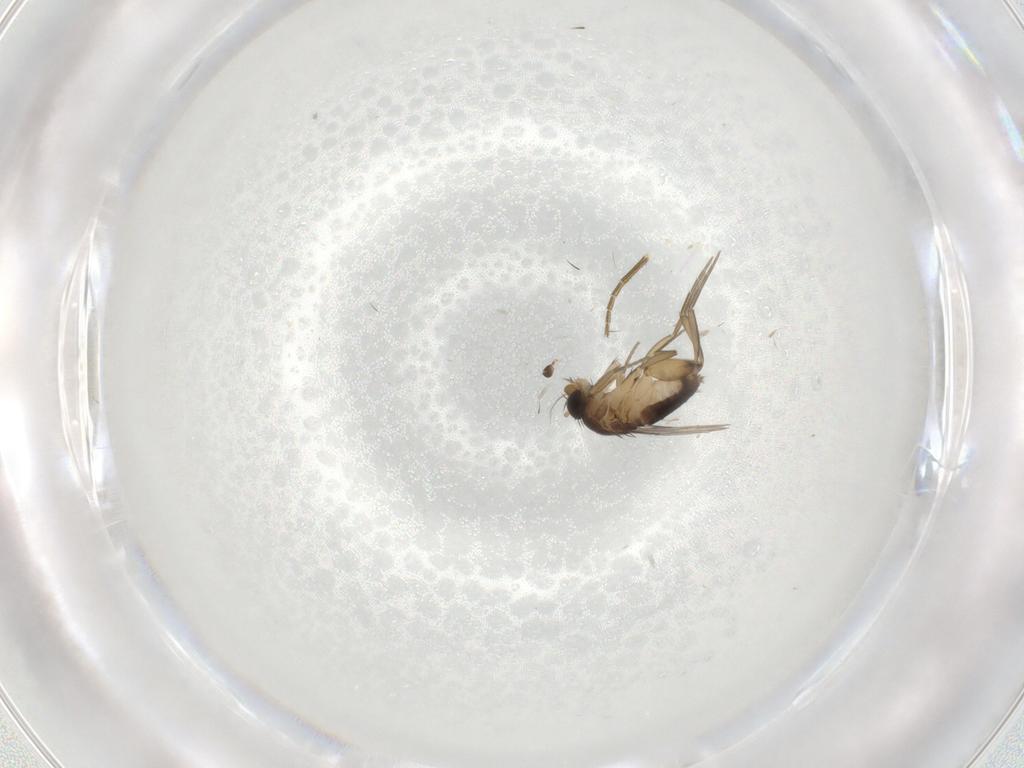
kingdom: Animalia
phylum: Arthropoda
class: Insecta
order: Diptera
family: Phoridae
